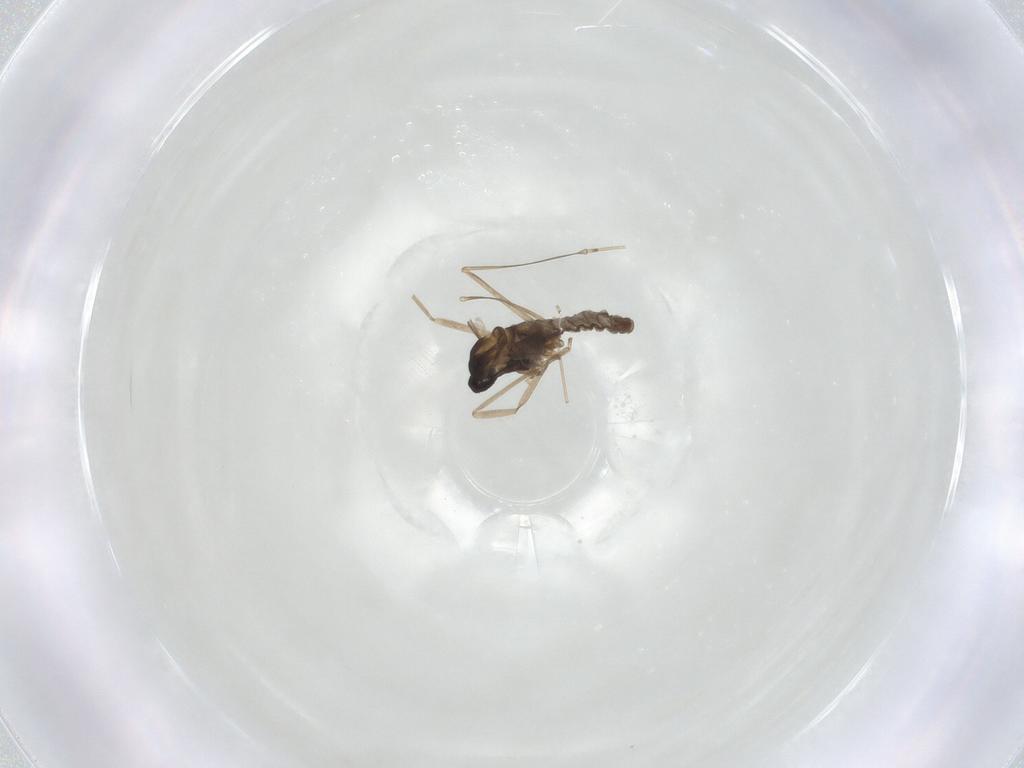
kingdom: Animalia
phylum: Arthropoda
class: Insecta
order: Diptera
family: Cecidomyiidae
